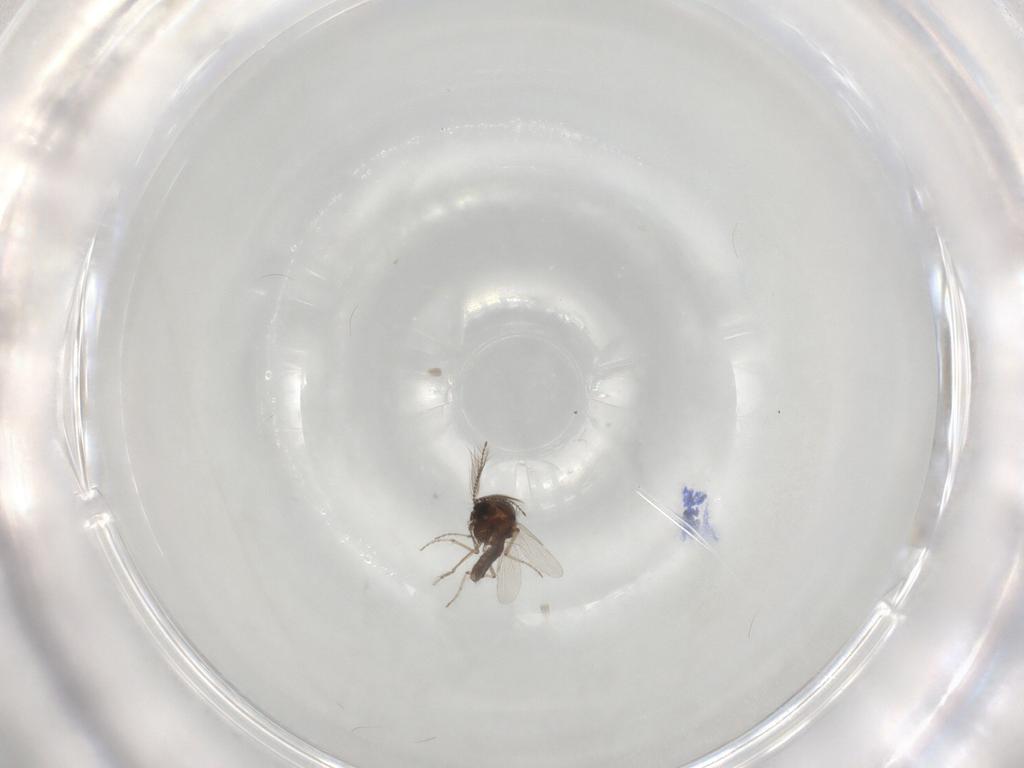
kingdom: Animalia
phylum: Arthropoda
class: Insecta
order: Diptera
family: Ceratopogonidae
